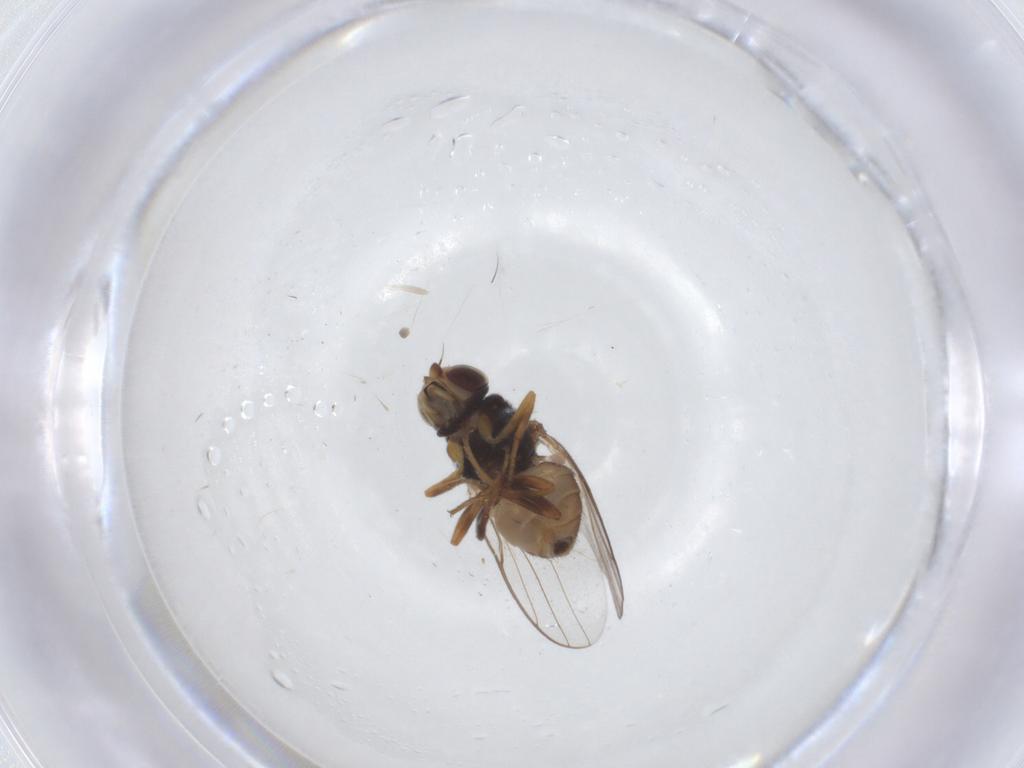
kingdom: Animalia
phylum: Arthropoda
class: Insecta
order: Diptera
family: Chloropidae
